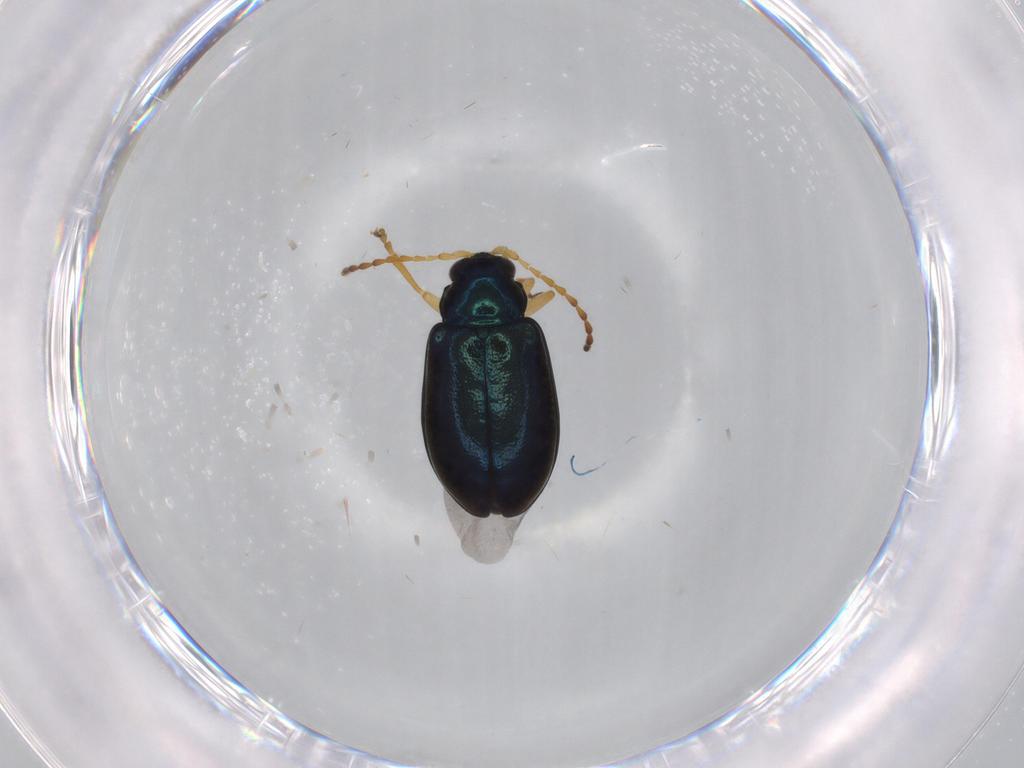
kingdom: Animalia
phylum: Arthropoda
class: Insecta
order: Coleoptera
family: Chrysomelidae
